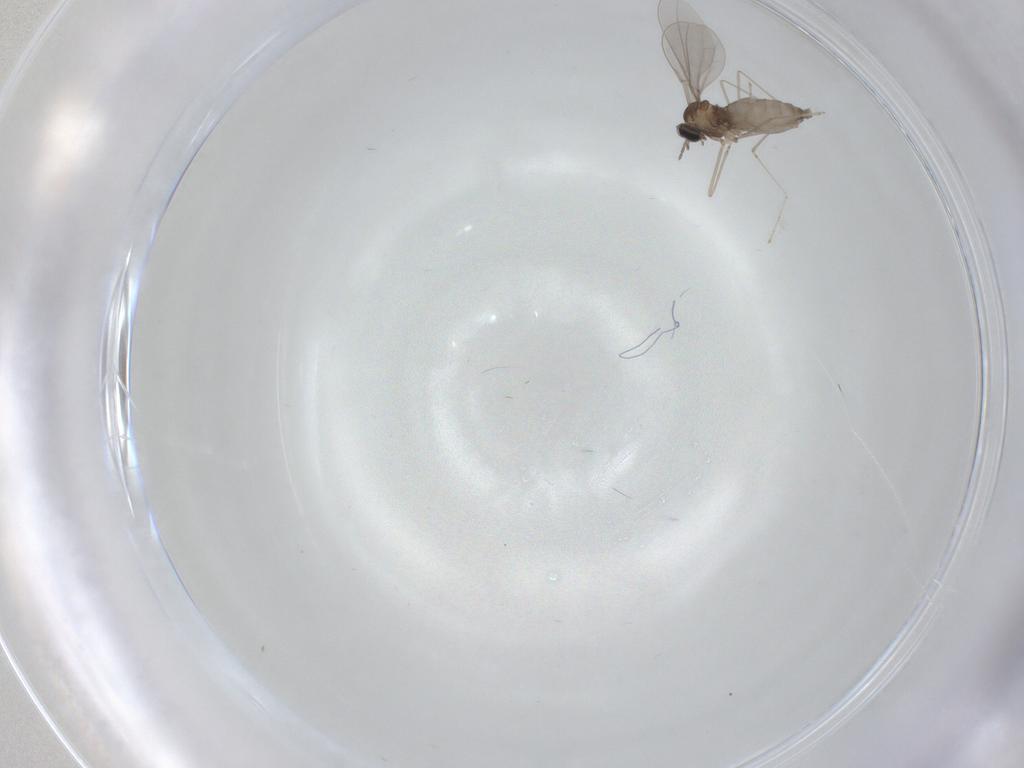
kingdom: Animalia
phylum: Arthropoda
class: Insecta
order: Diptera
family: Cecidomyiidae
